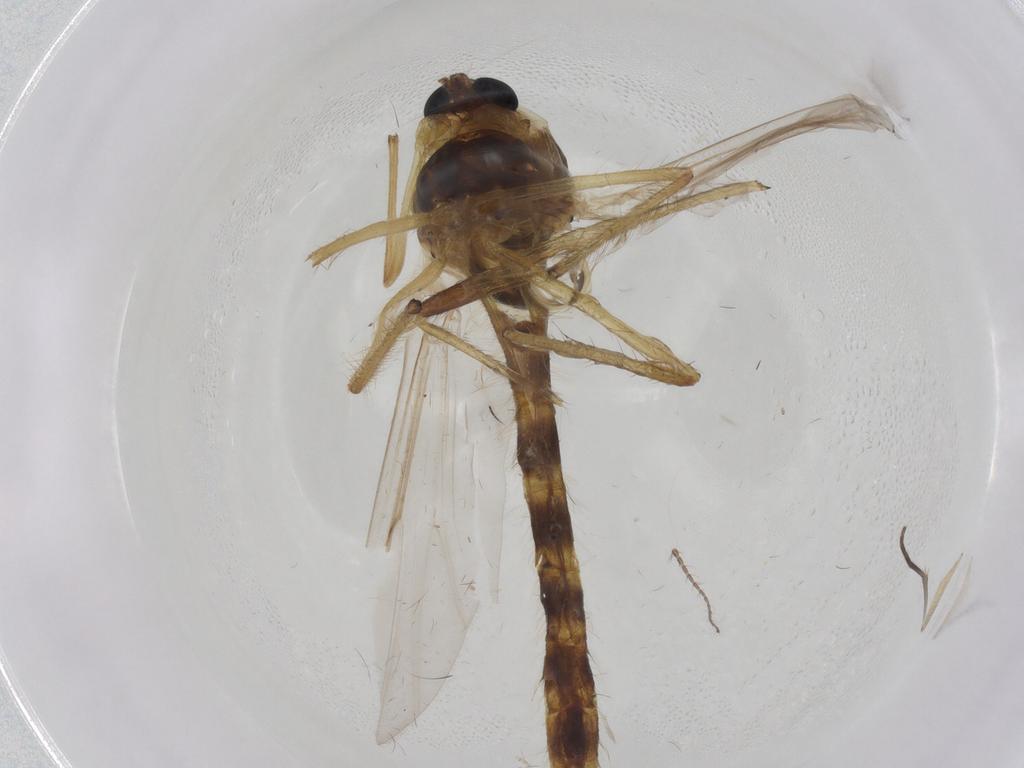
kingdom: Animalia
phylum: Arthropoda
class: Insecta
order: Diptera
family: Chironomidae
